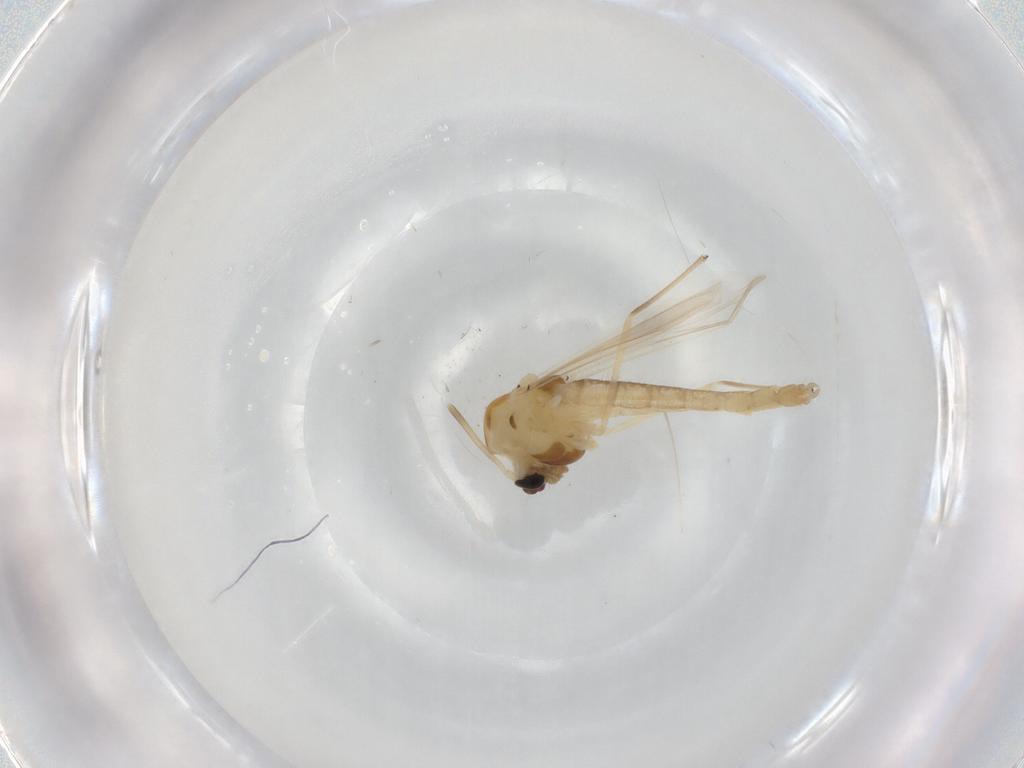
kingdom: Animalia
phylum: Arthropoda
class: Insecta
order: Diptera
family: Chironomidae
